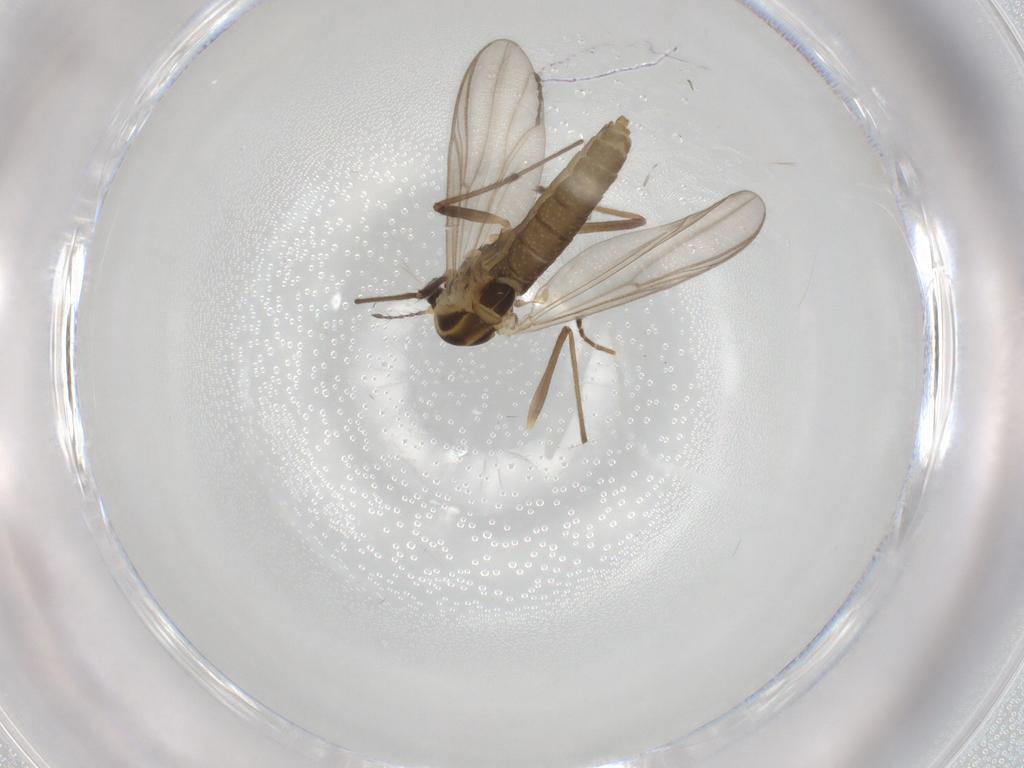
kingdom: Animalia
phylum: Arthropoda
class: Insecta
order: Diptera
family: Chironomidae
